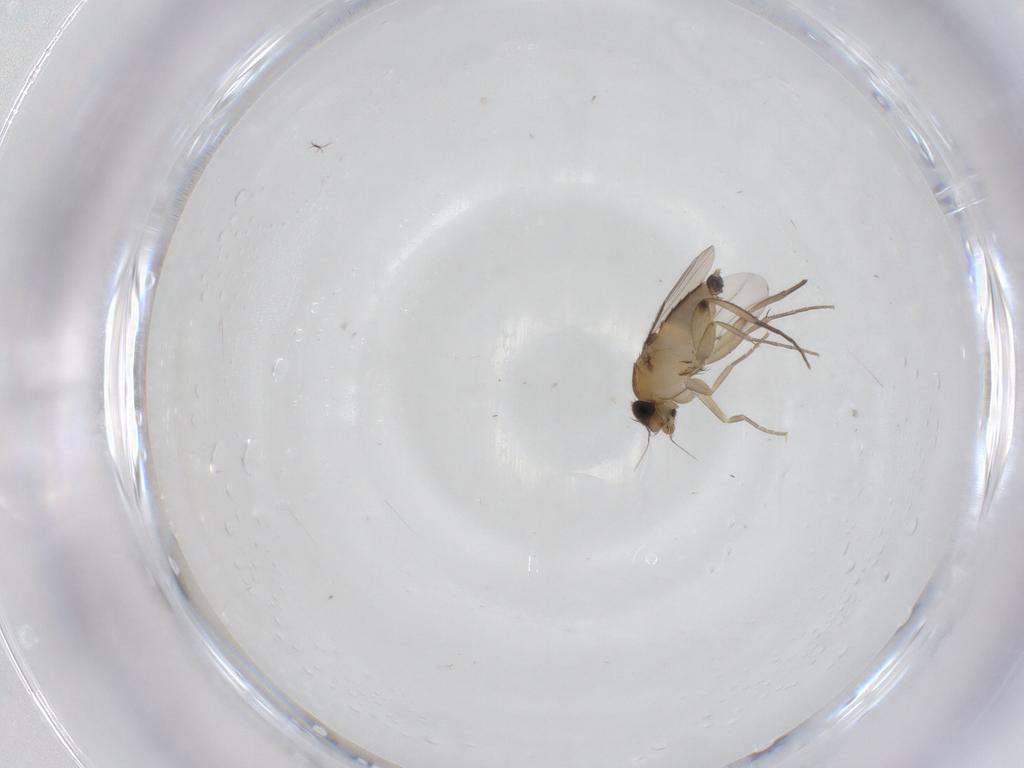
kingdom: Animalia
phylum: Arthropoda
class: Insecta
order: Diptera
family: Phoridae
